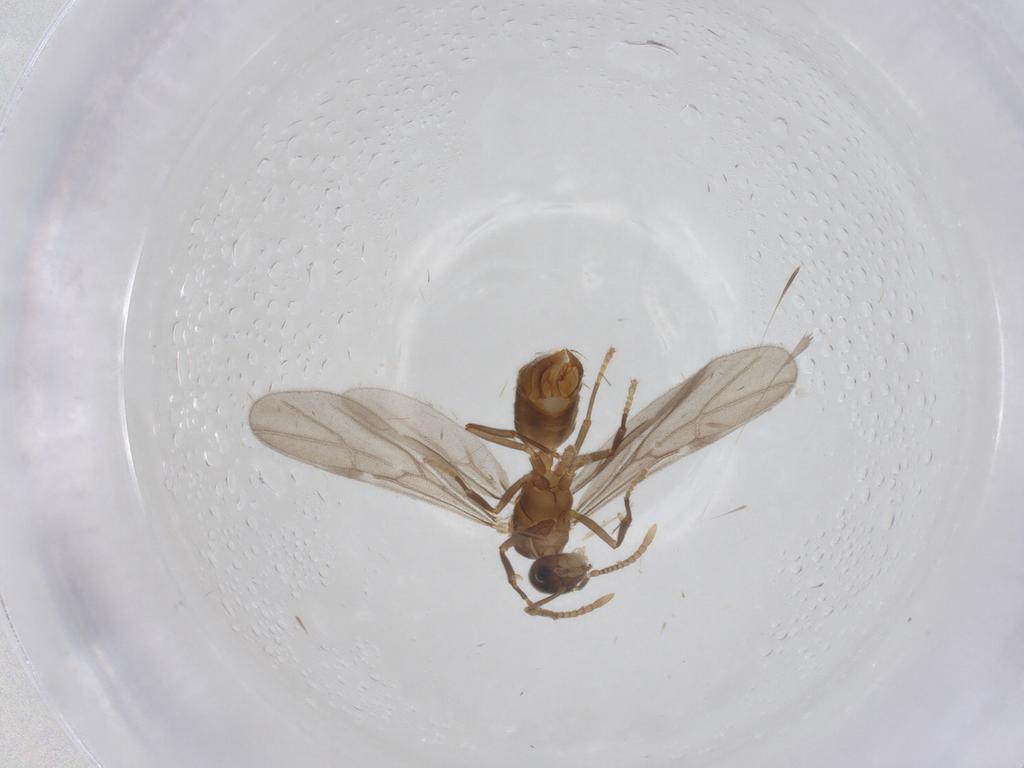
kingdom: Animalia
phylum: Arthropoda
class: Insecta
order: Hymenoptera
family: Formicidae
